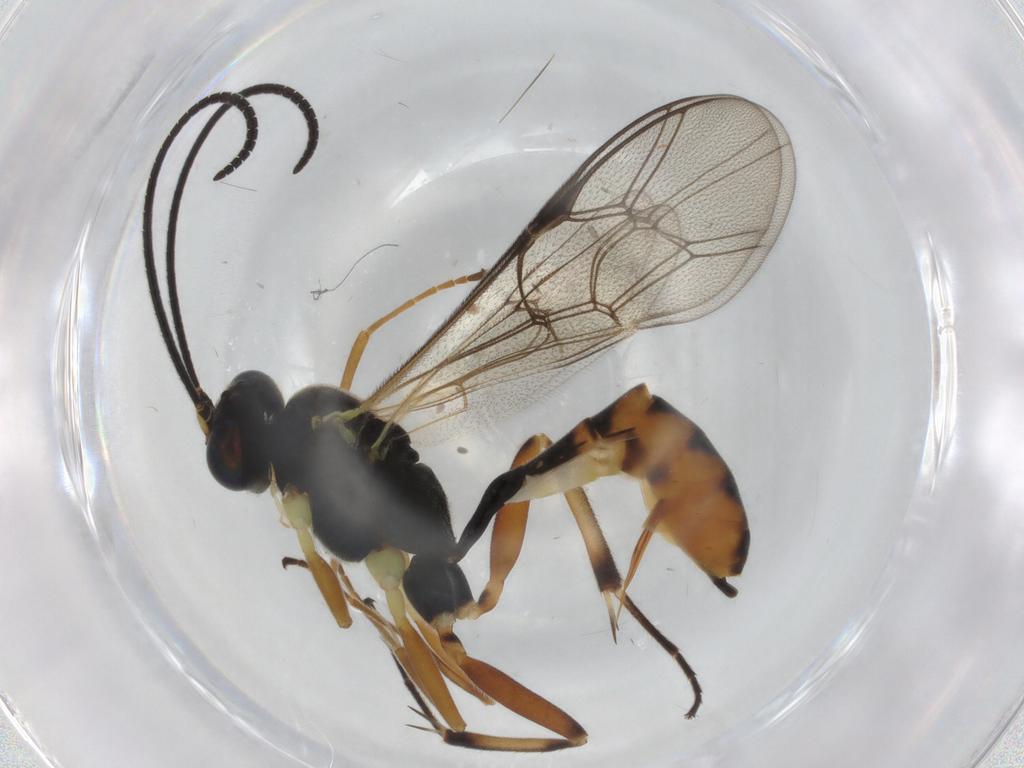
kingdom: Animalia
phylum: Arthropoda
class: Insecta
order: Hymenoptera
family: Ichneumonidae
